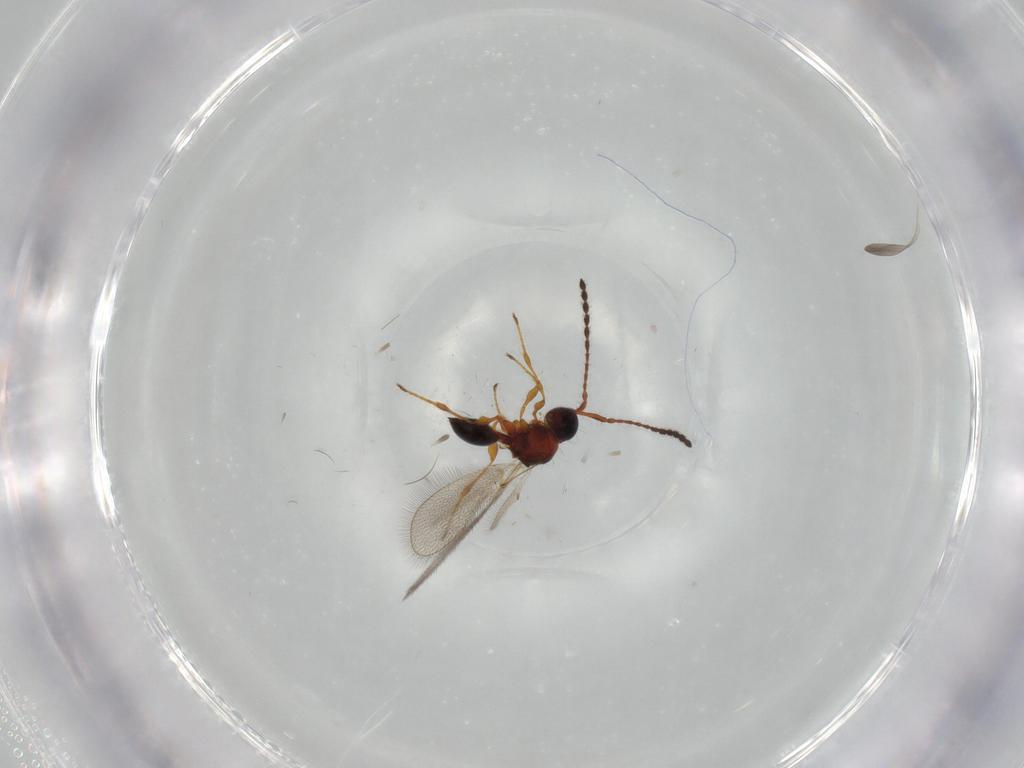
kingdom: Animalia
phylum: Arthropoda
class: Insecta
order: Hymenoptera
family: Diapriidae
